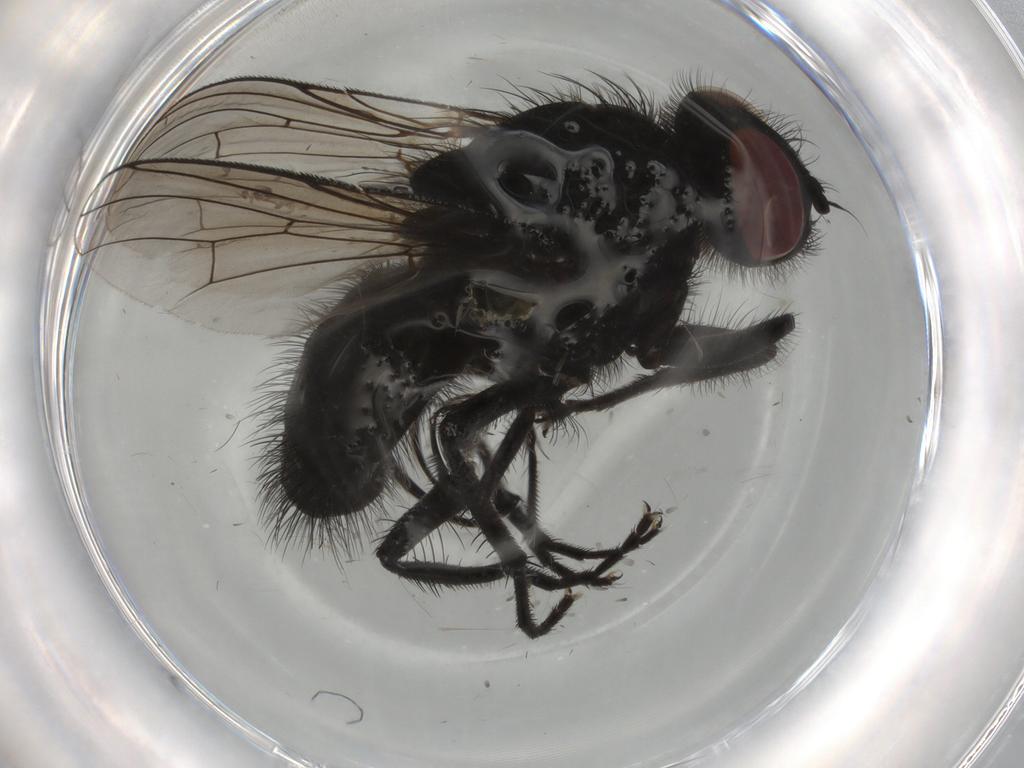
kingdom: Animalia
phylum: Arthropoda
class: Insecta
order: Diptera
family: Muscidae
